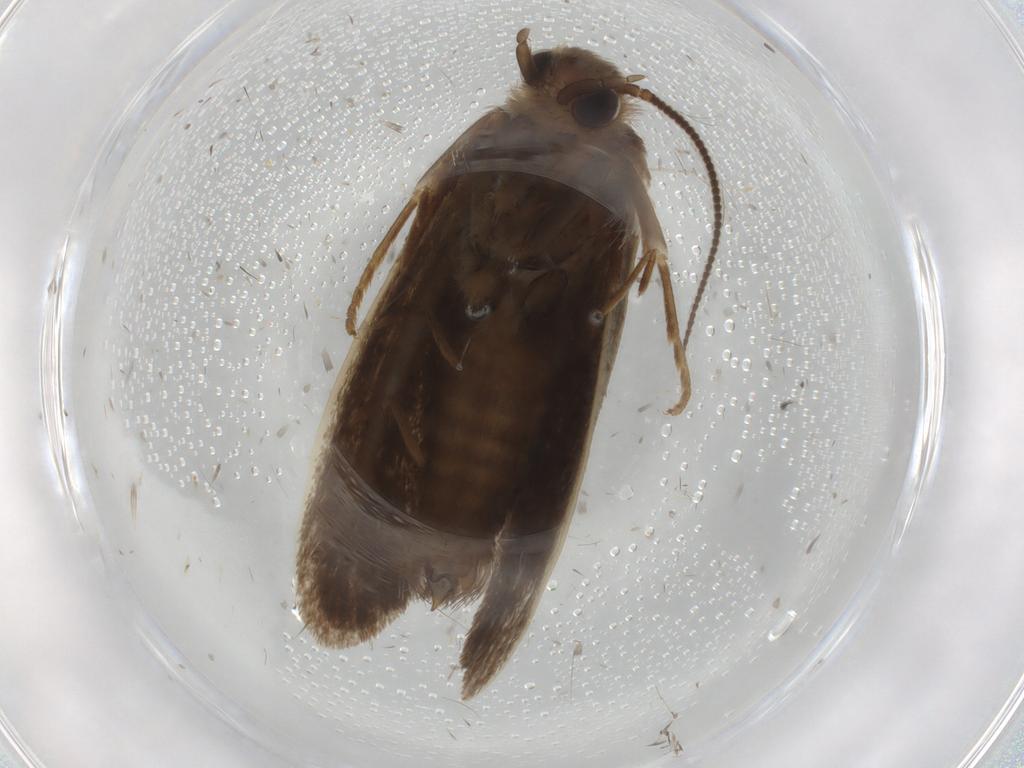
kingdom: Animalia
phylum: Arthropoda
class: Insecta
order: Lepidoptera
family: Tineidae
